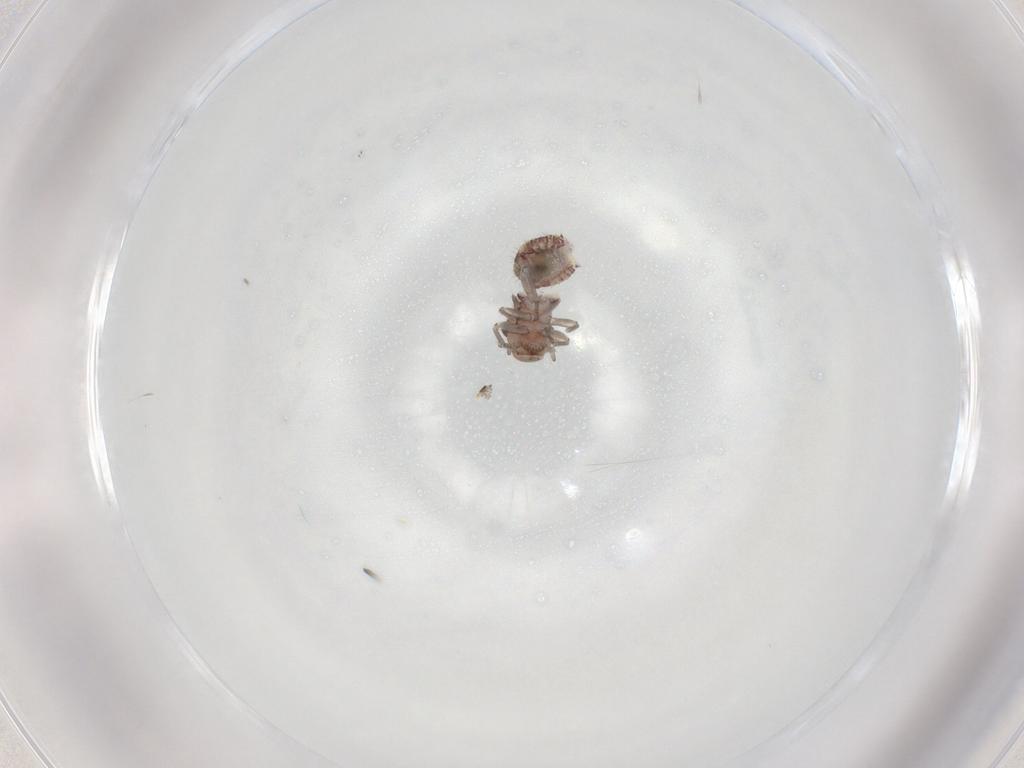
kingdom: Animalia
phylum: Arthropoda
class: Insecta
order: Psocodea
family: Caeciliusidae
